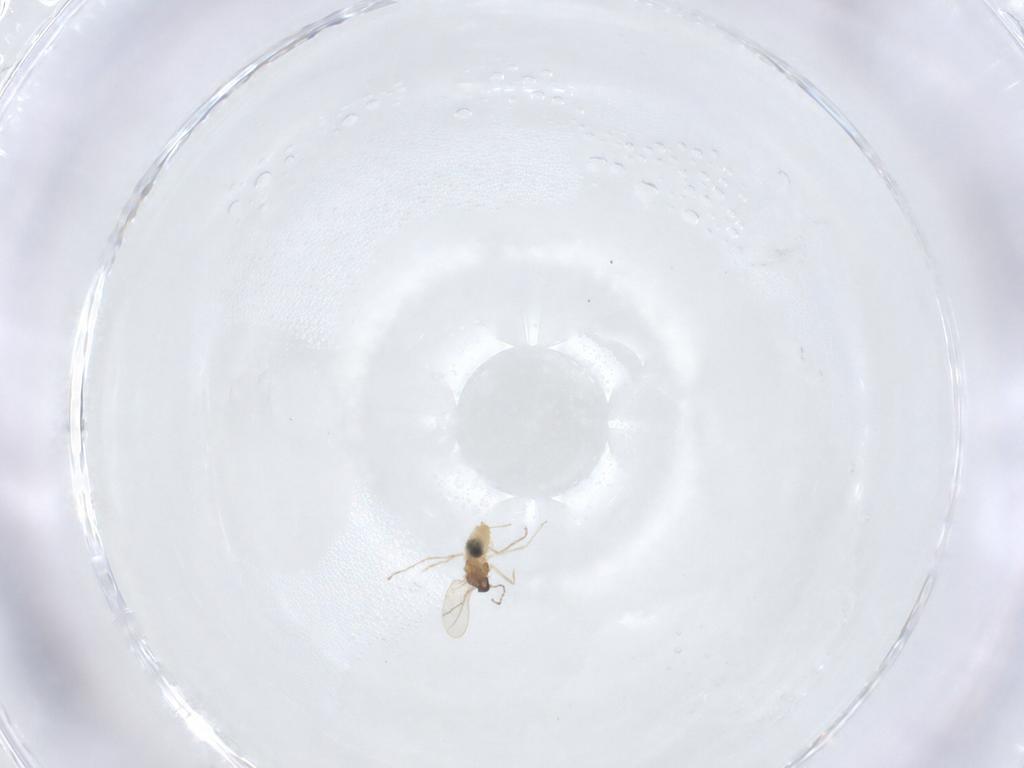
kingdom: Animalia
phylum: Arthropoda
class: Insecta
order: Diptera
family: Cecidomyiidae
